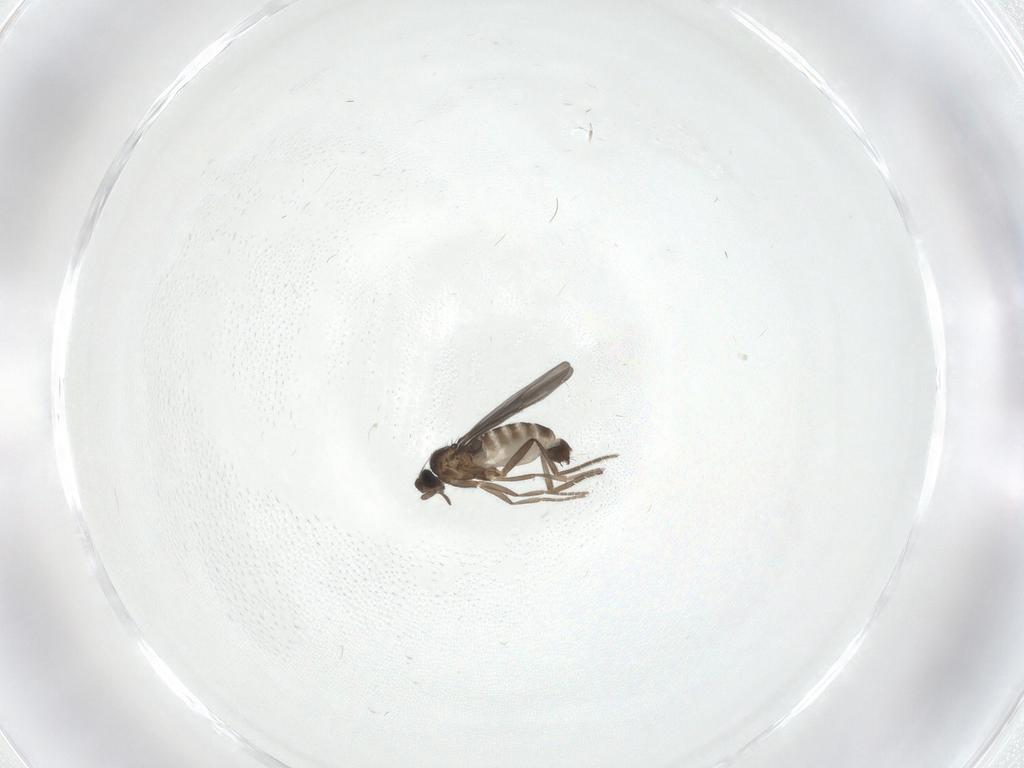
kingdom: Animalia
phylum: Arthropoda
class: Insecta
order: Diptera
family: Phoridae
